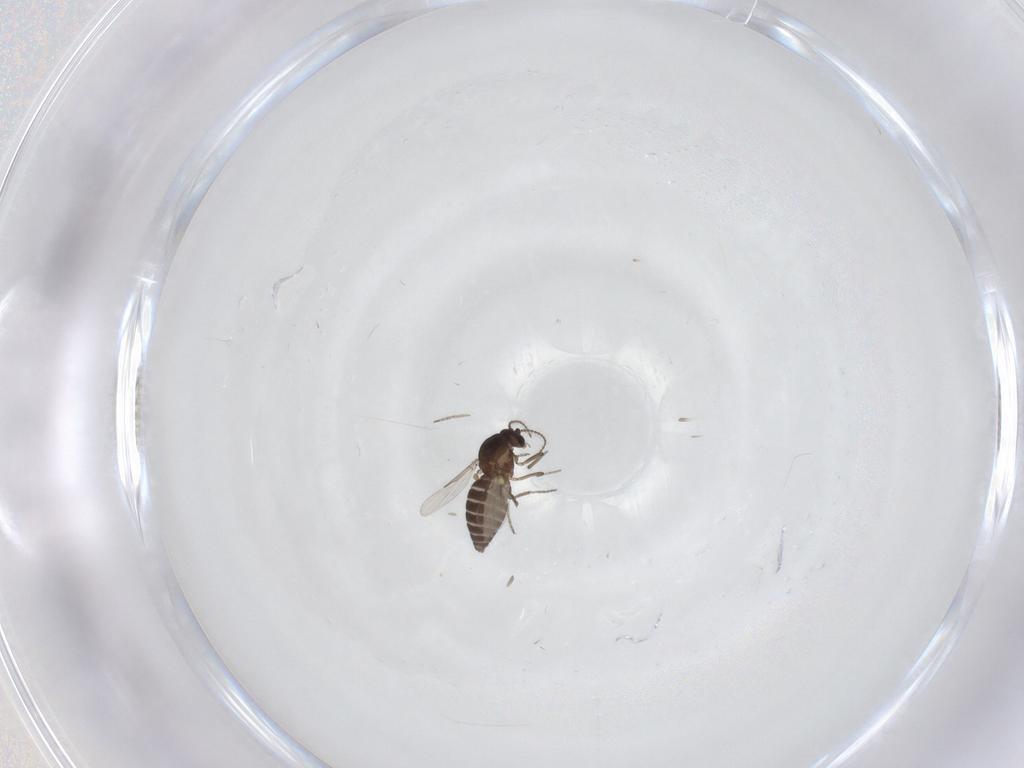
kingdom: Animalia
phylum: Arthropoda
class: Insecta
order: Diptera
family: Ceratopogonidae
